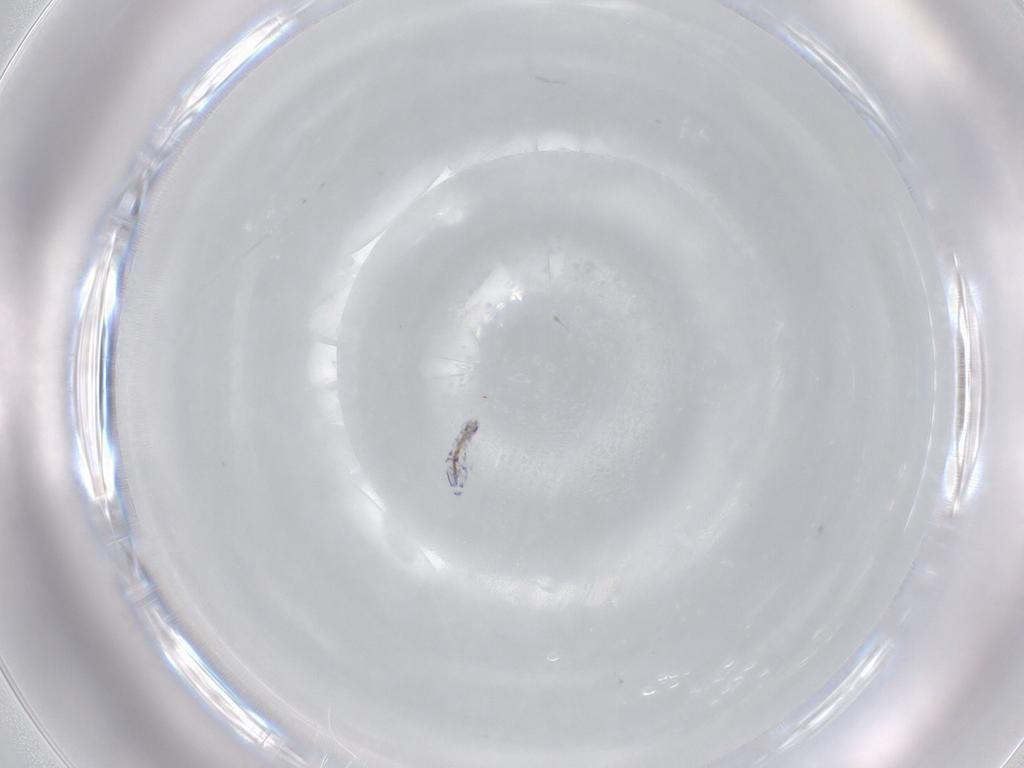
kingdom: Animalia
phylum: Arthropoda
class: Collembola
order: Entomobryomorpha
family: Entomobryidae
